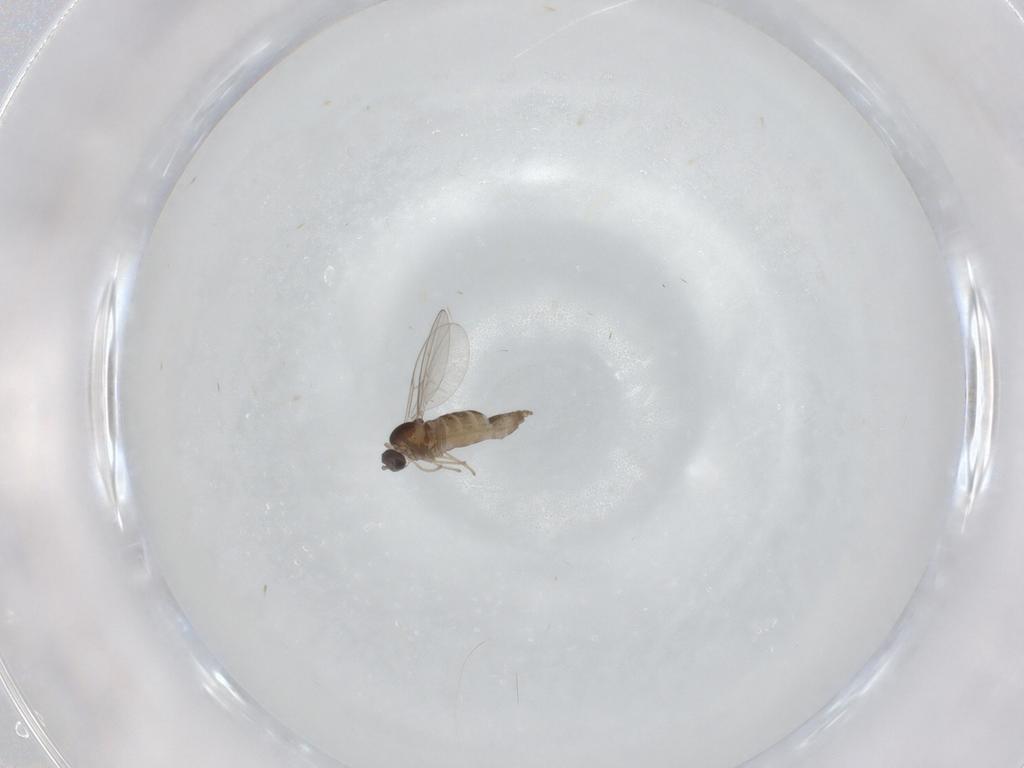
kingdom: Animalia
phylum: Arthropoda
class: Insecta
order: Diptera
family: Cecidomyiidae
